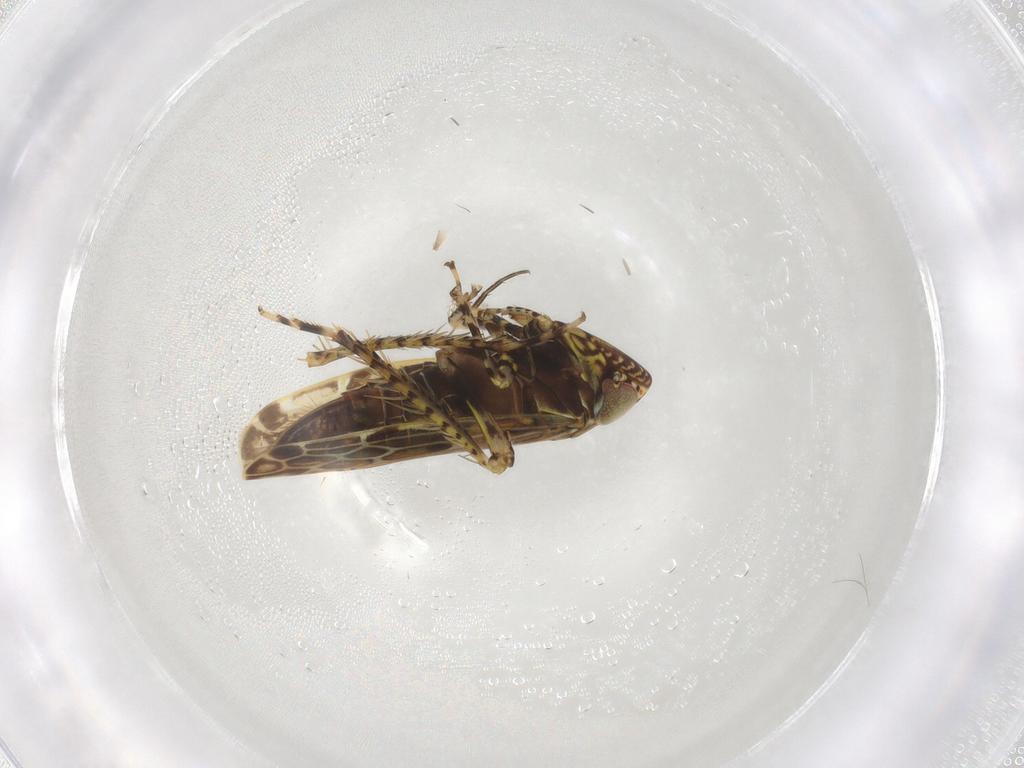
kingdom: Animalia
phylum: Arthropoda
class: Insecta
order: Hemiptera
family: Cicadellidae
